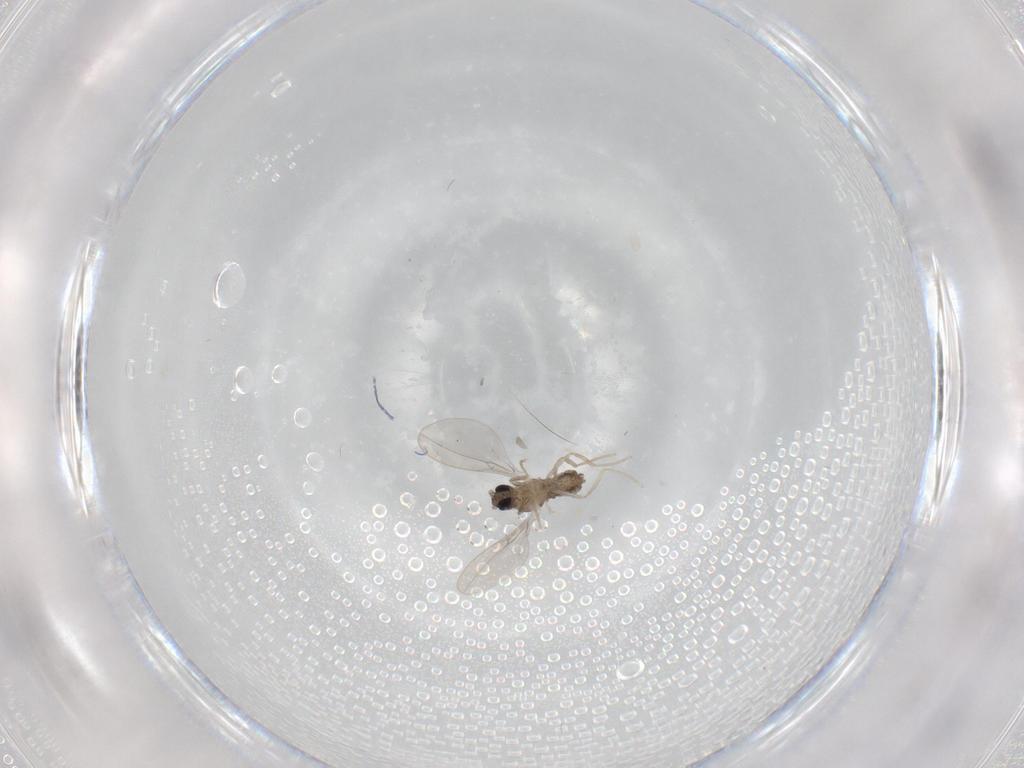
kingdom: Animalia
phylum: Arthropoda
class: Insecta
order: Diptera
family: Cecidomyiidae
